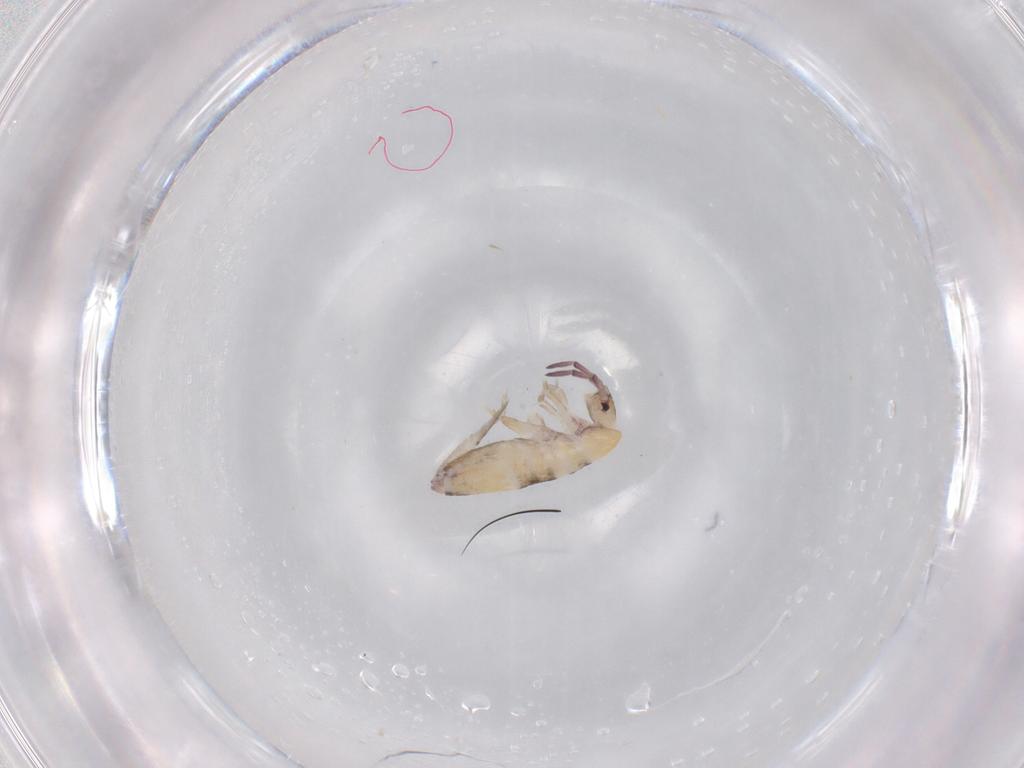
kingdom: Animalia
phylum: Arthropoda
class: Collembola
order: Entomobryomorpha
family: Entomobryidae
